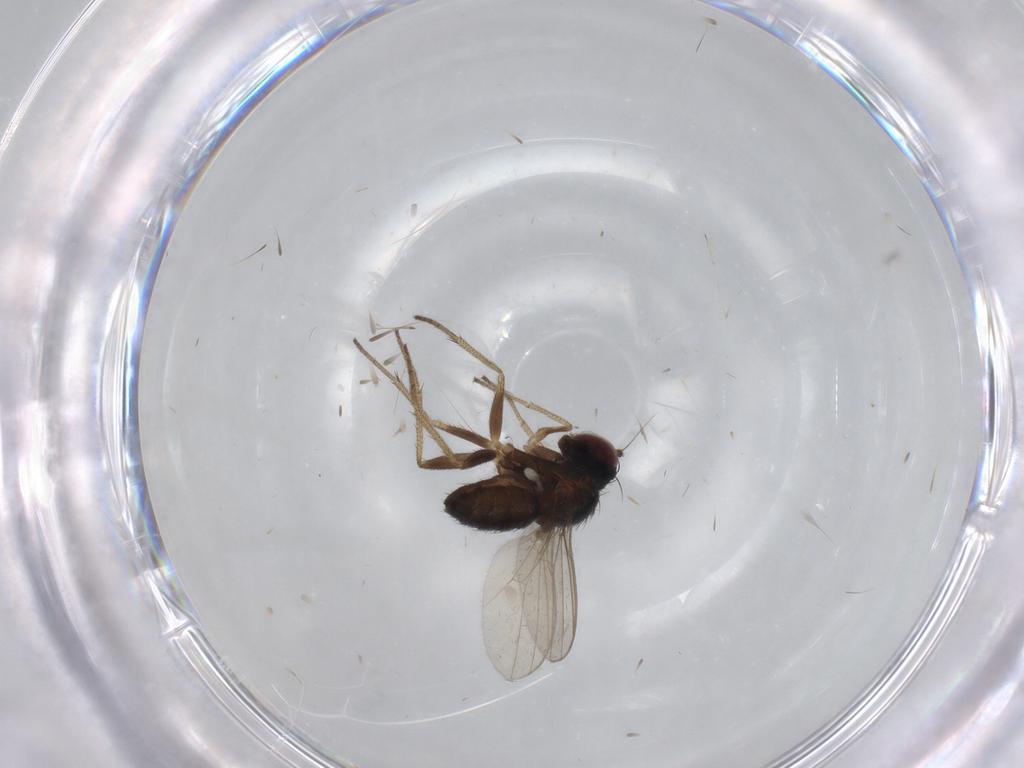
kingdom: Animalia
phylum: Arthropoda
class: Insecta
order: Diptera
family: Dolichopodidae
